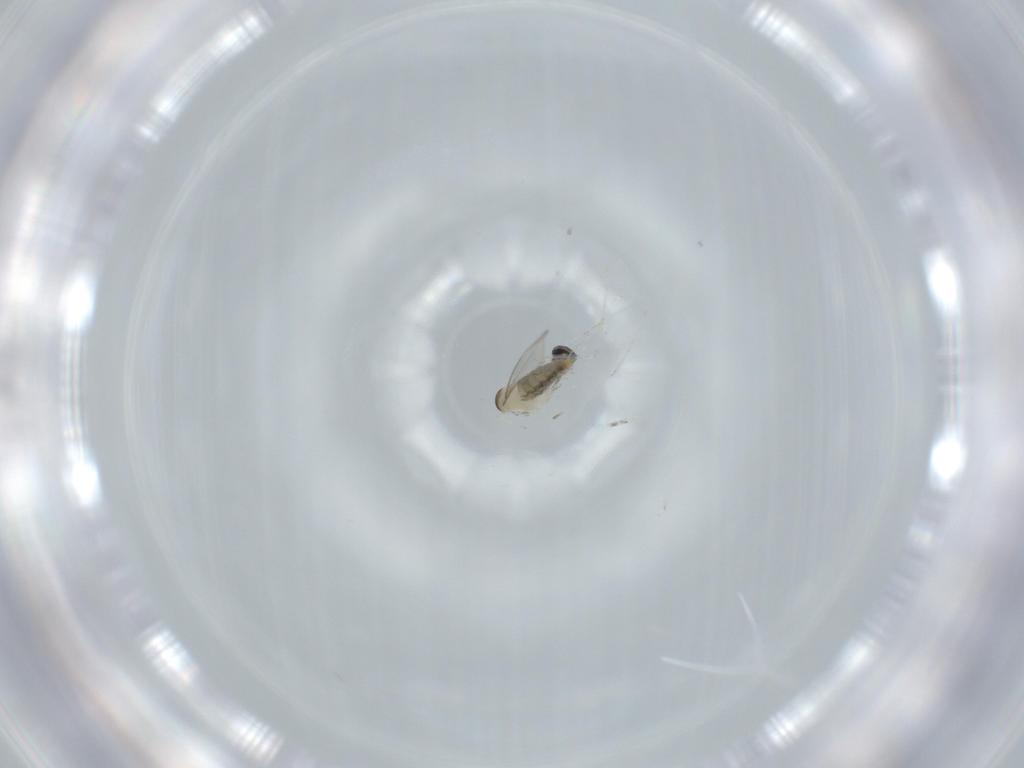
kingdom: Animalia
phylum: Arthropoda
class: Insecta
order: Diptera
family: Cecidomyiidae
